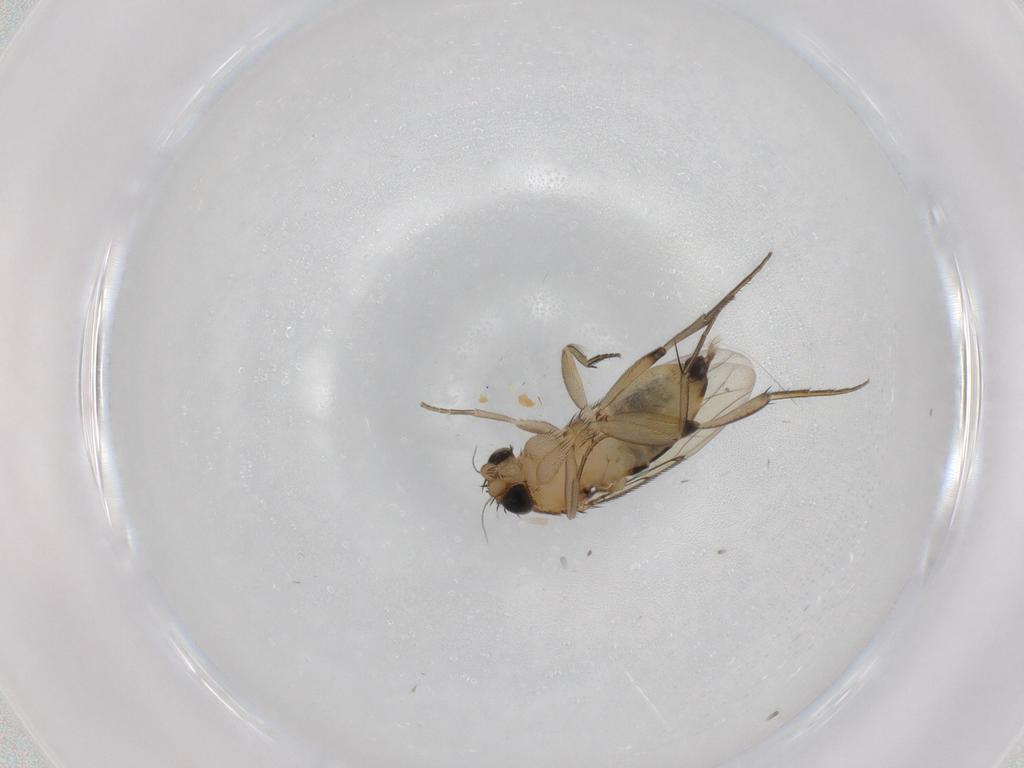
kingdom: Animalia
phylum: Arthropoda
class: Insecta
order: Diptera
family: Phoridae
